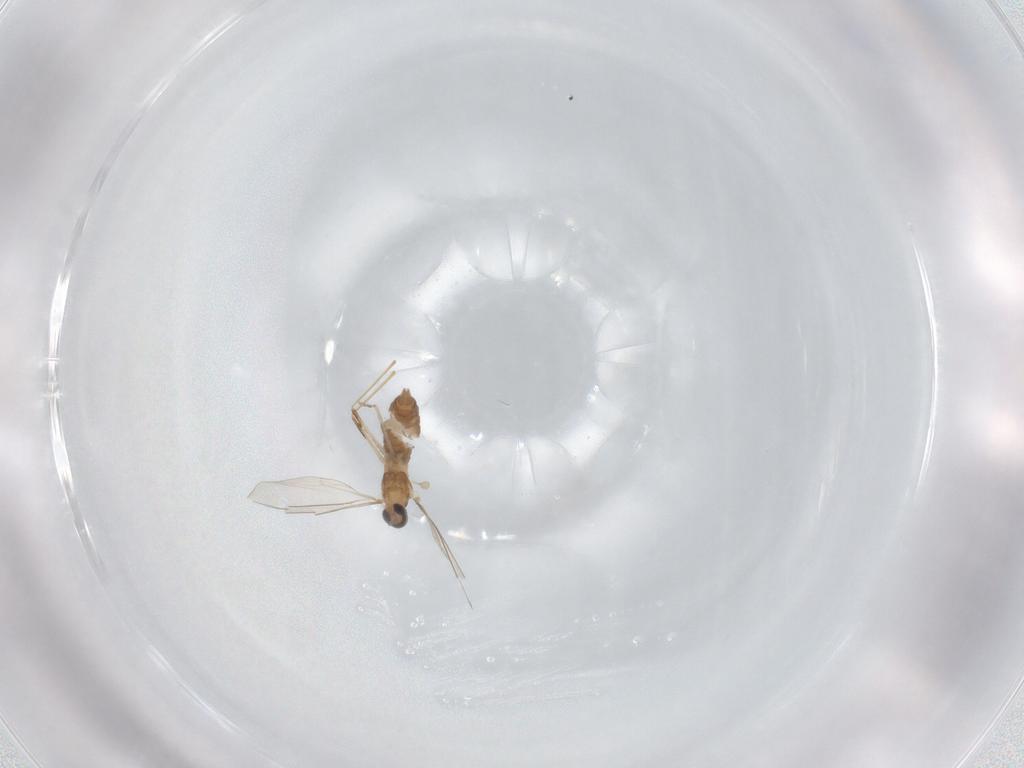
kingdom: Animalia
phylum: Arthropoda
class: Insecta
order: Diptera
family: Cecidomyiidae
